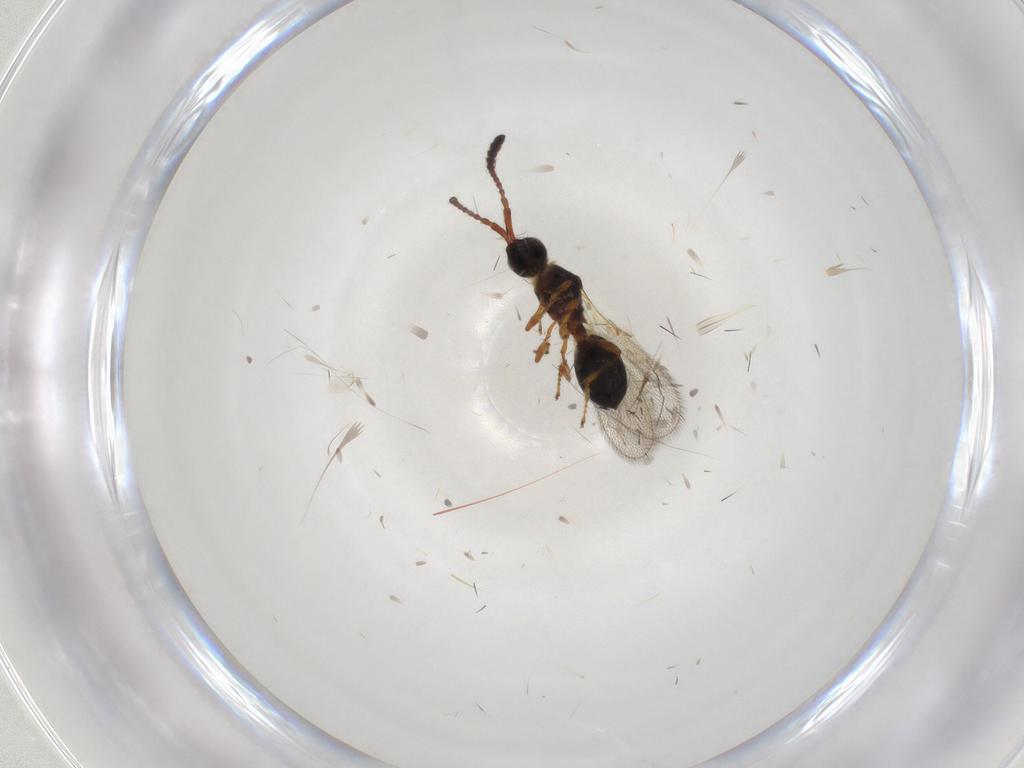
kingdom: Animalia
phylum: Arthropoda
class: Insecta
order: Hymenoptera
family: Diapriidae
